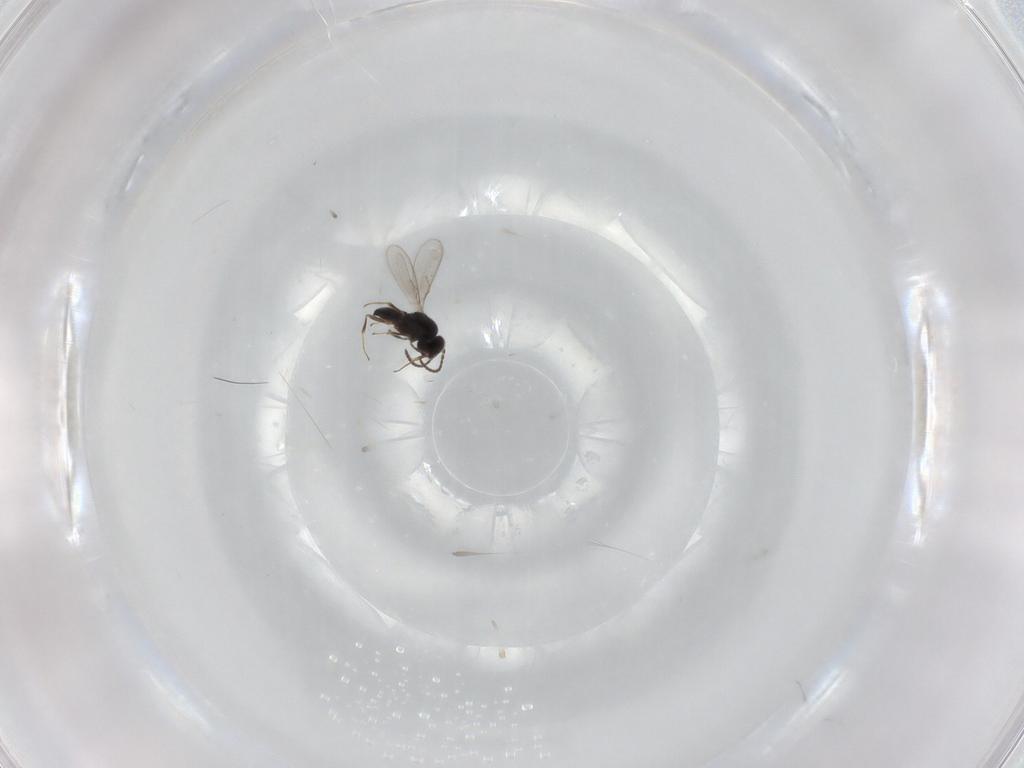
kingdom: Animalia
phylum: Arthropoda
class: Insecta
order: Hymenoptera
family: Scelionidae
